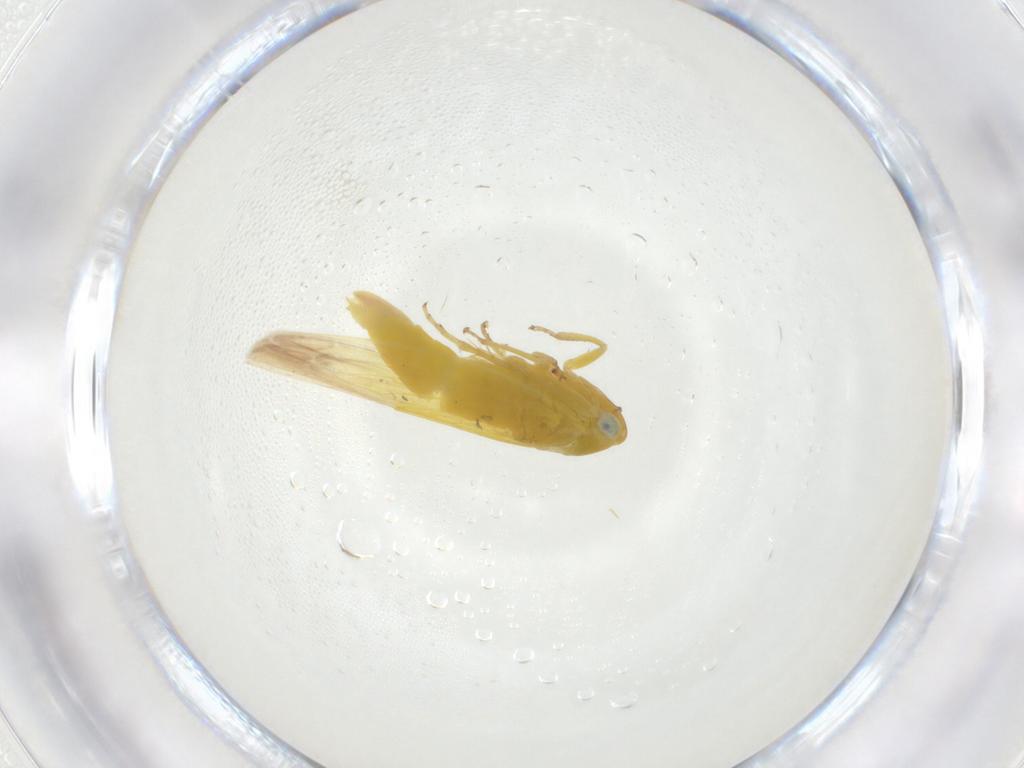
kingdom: Animalia
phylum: Arthropoda
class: Insecta
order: Hemiptera
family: Cicadellidae
